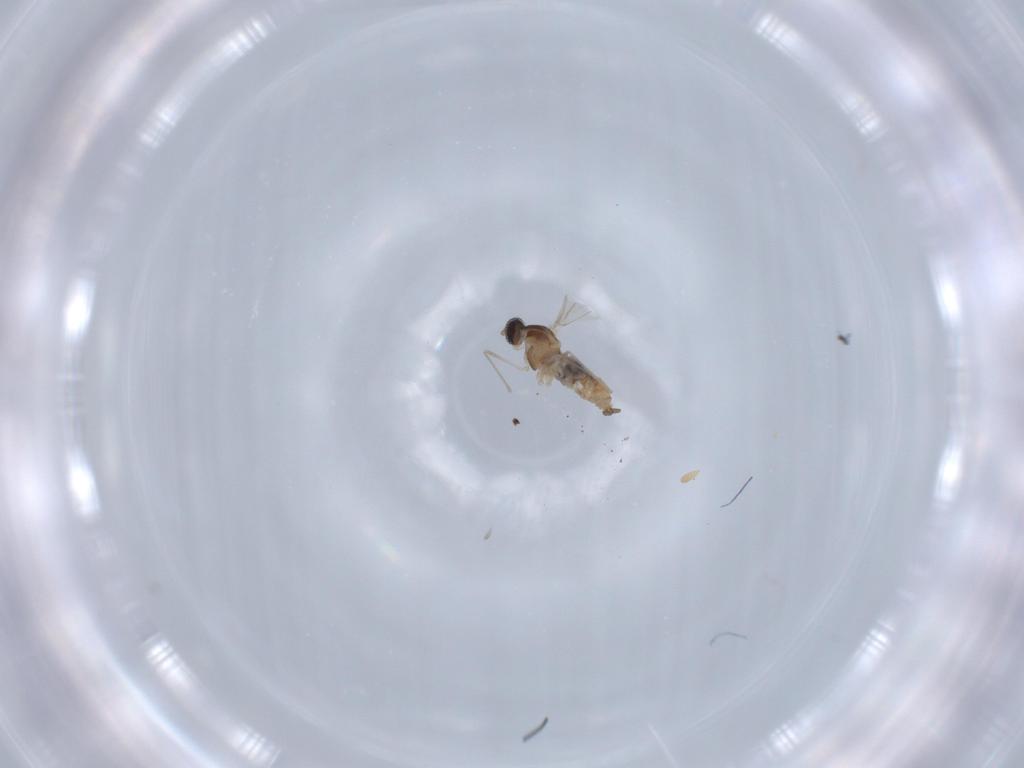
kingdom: Animalia
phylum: Arthropoda
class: Insecta
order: Diptera
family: Cecidomyiidae
